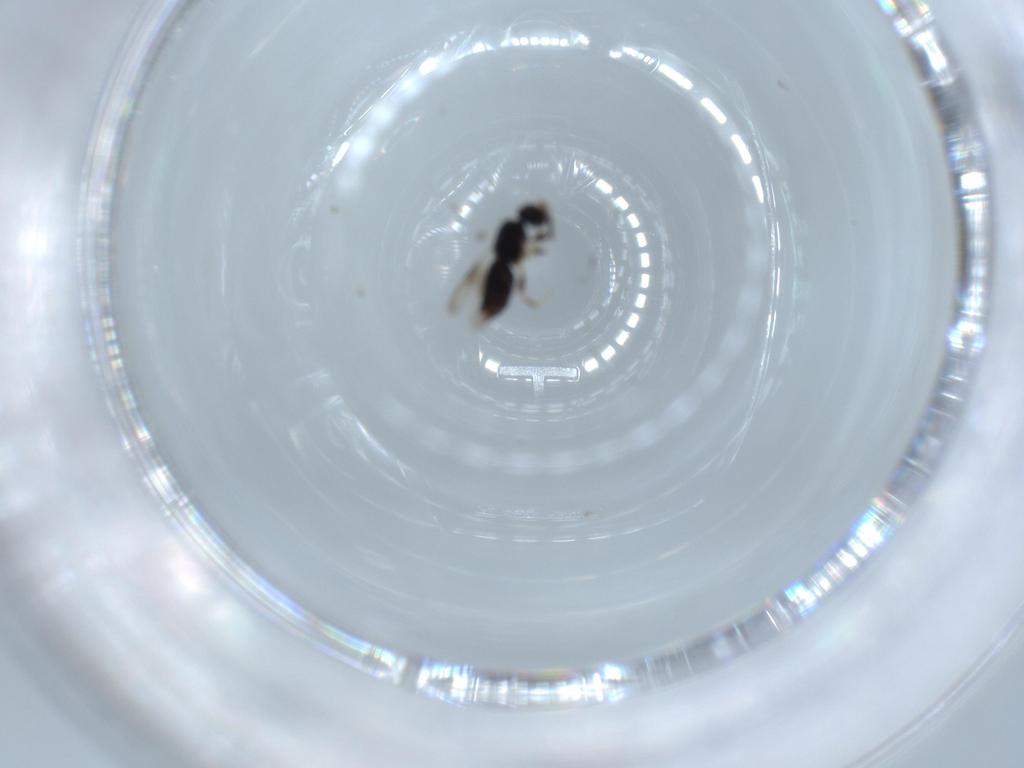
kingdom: Animalia
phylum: Arthropoda
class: Insecta
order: Hymenoptera
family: Ceraphronidae
